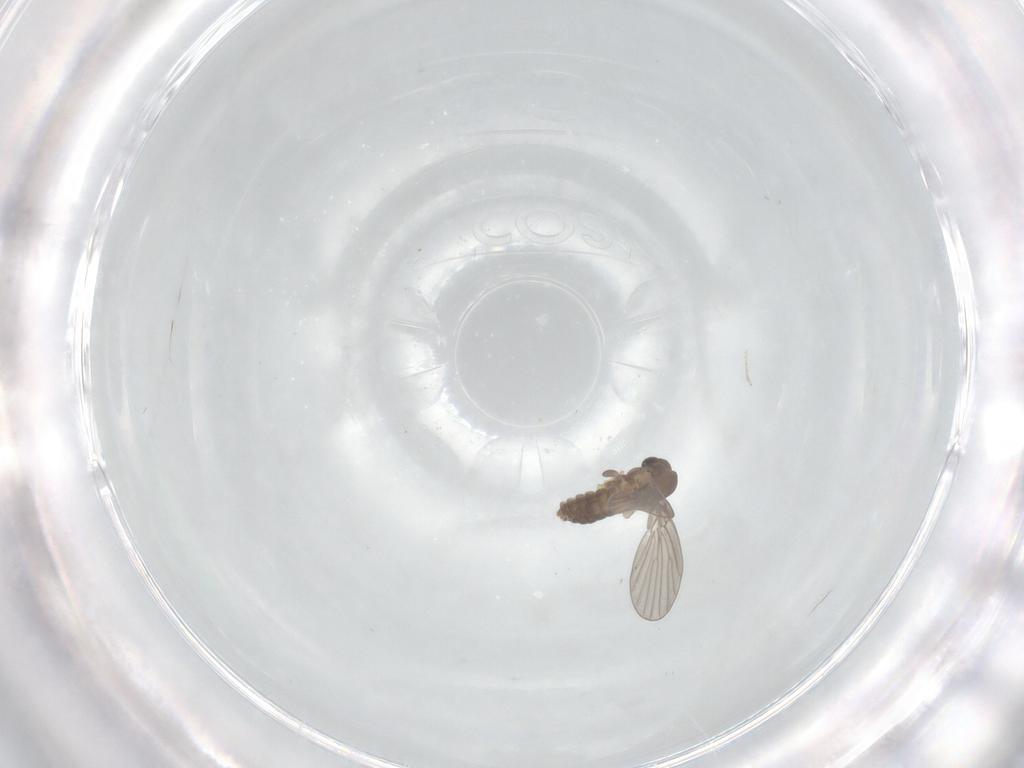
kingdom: Animalia
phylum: Arthropoda
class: Insecta
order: Diptera
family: Cecidomyiidae
